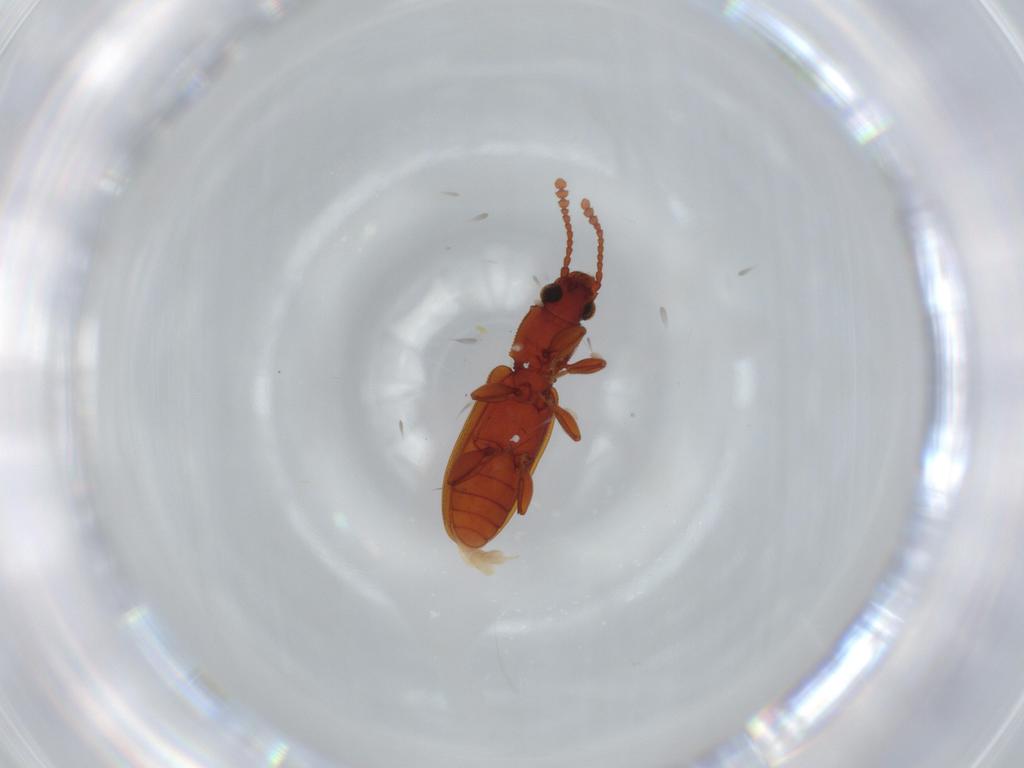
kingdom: Animalia
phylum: Arthropoda
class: Insecta
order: Coleoptera
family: Silvanidae
